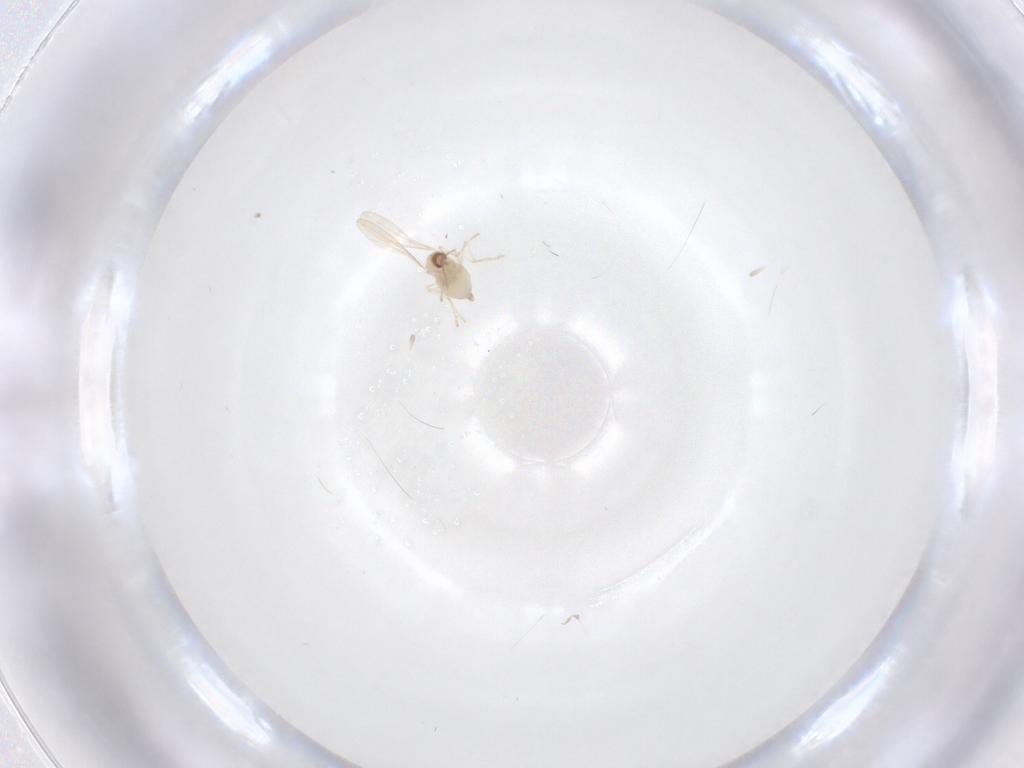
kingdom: Animalia
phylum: Arthropoda
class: Insecta
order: Diptera
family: Cecidomyiidae
